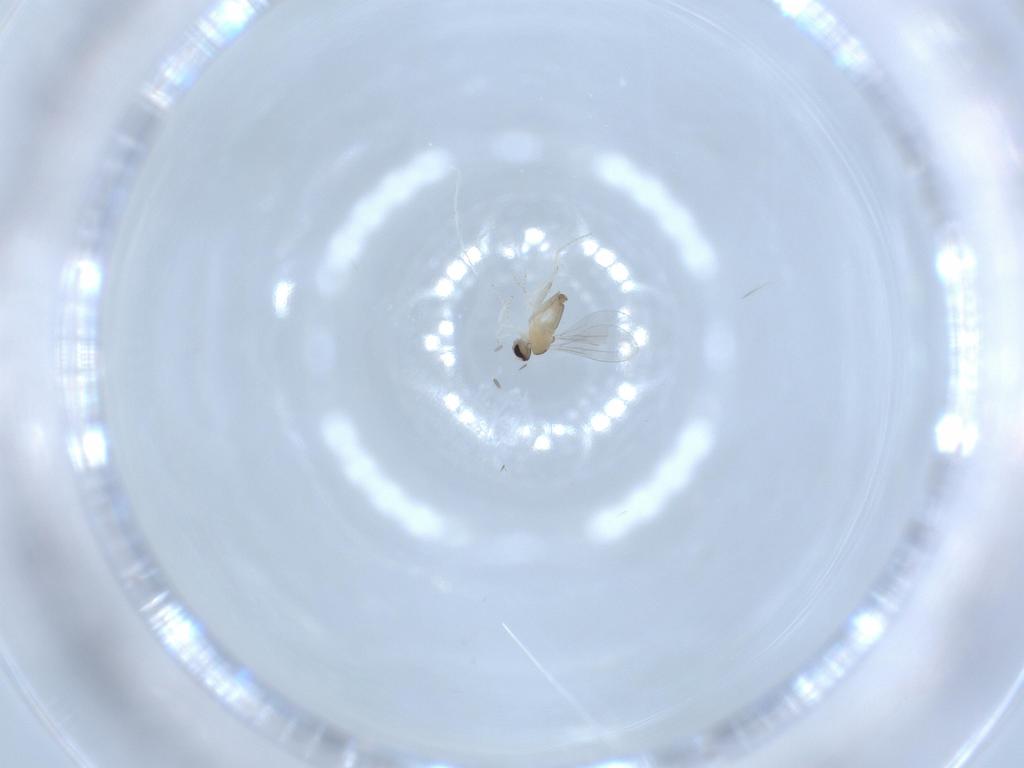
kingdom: Animalia
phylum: Arthropoda
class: Insecta
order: Diptera
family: Cecidomyiidae
